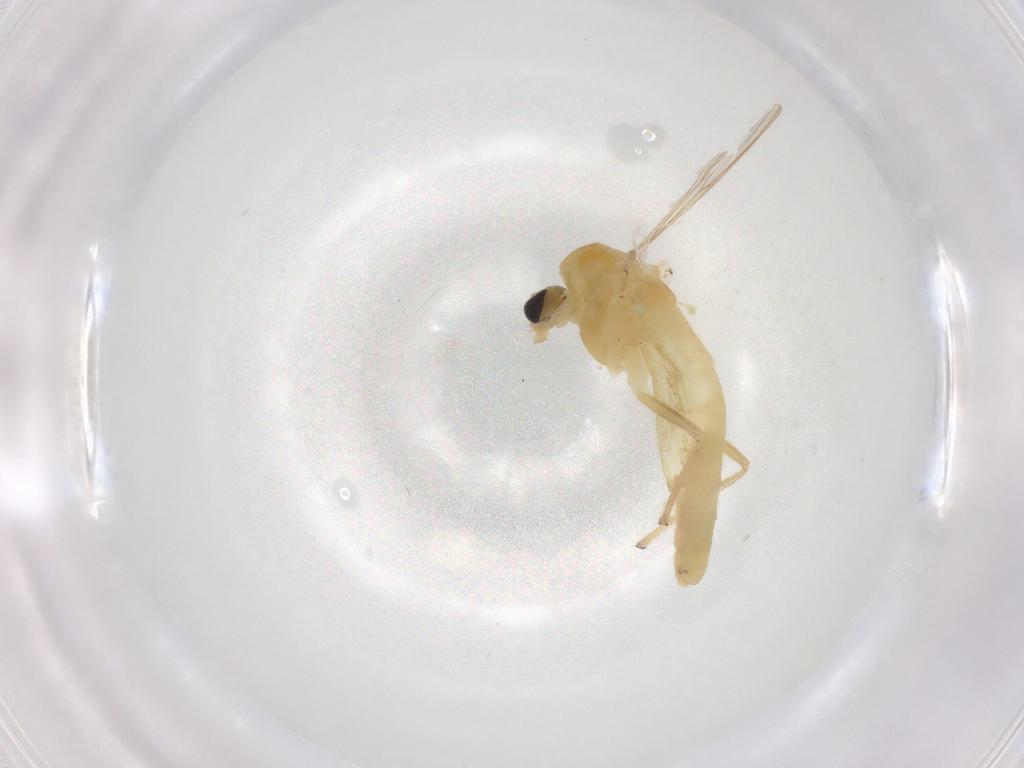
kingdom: Animalia
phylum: Arthropoda
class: Insecta
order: Diptera
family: Chironomidae
